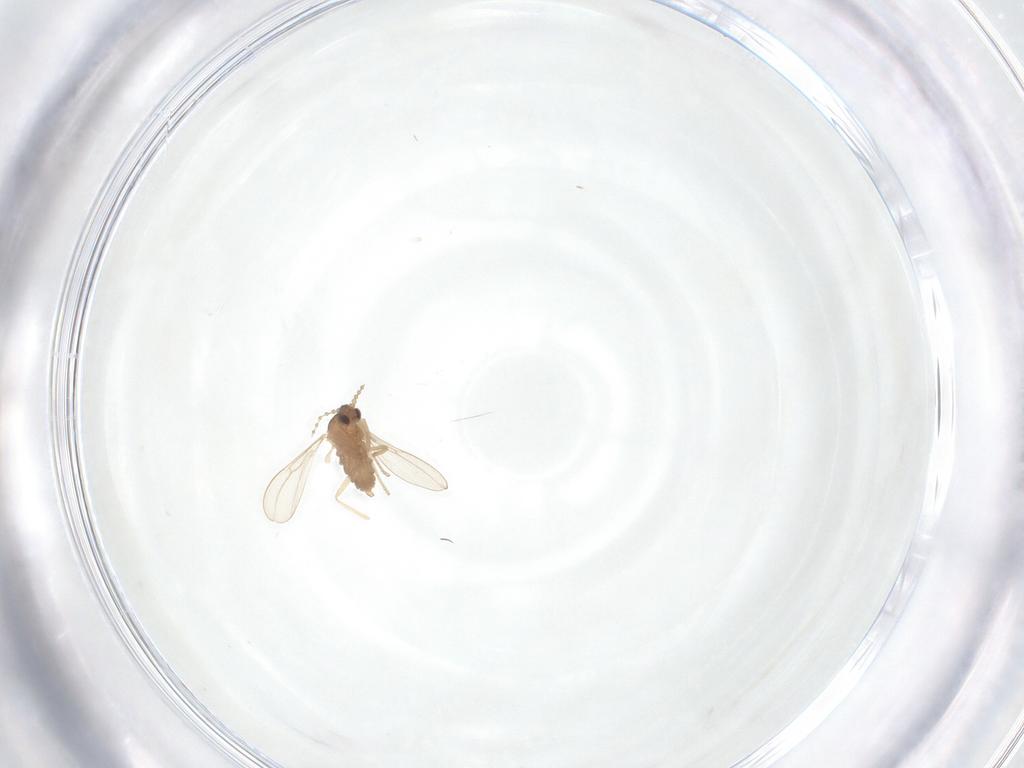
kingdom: Animalia
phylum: Arthropoda
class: Insecta
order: Diptera
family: Cecidomyiidae
